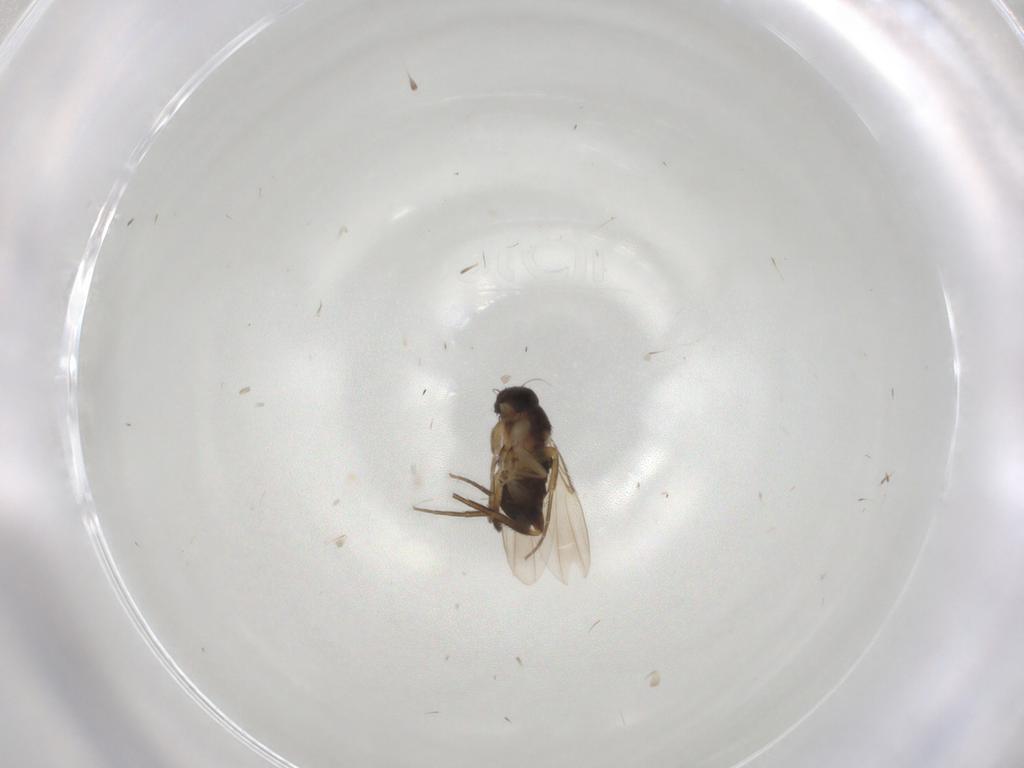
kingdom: Animalia
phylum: Arthropoda
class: Insecta
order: Diptera
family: Phoridae
